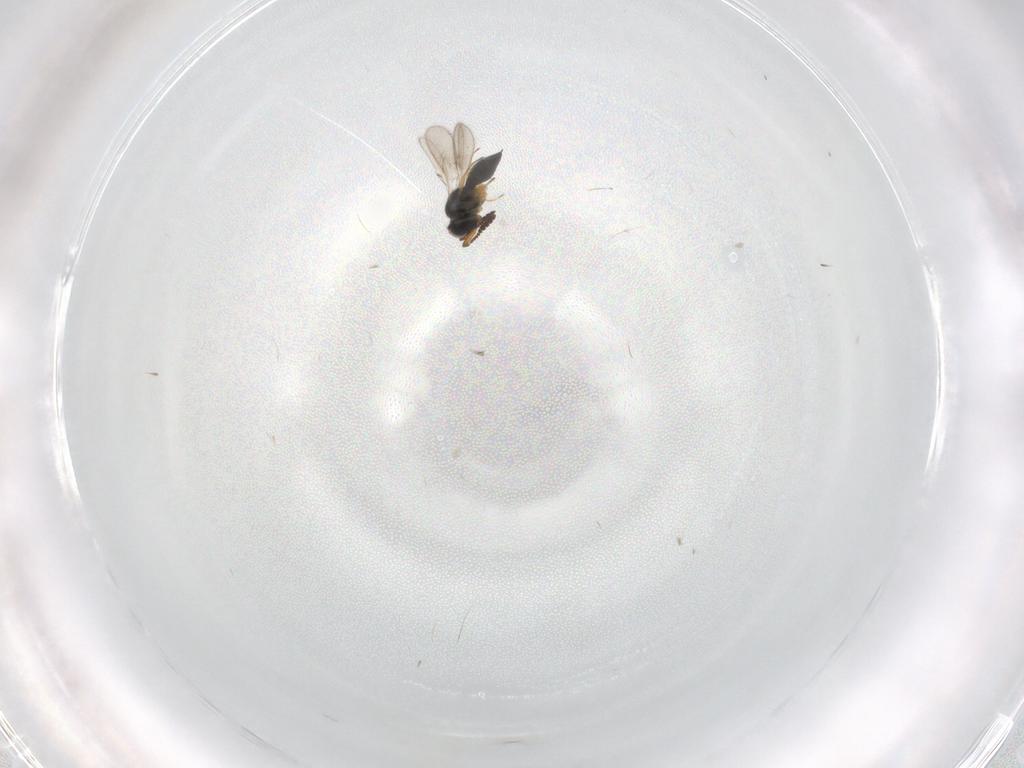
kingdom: Animalia
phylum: Arthropoda
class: Insecta
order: Hymenoptera
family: Scelionidae
